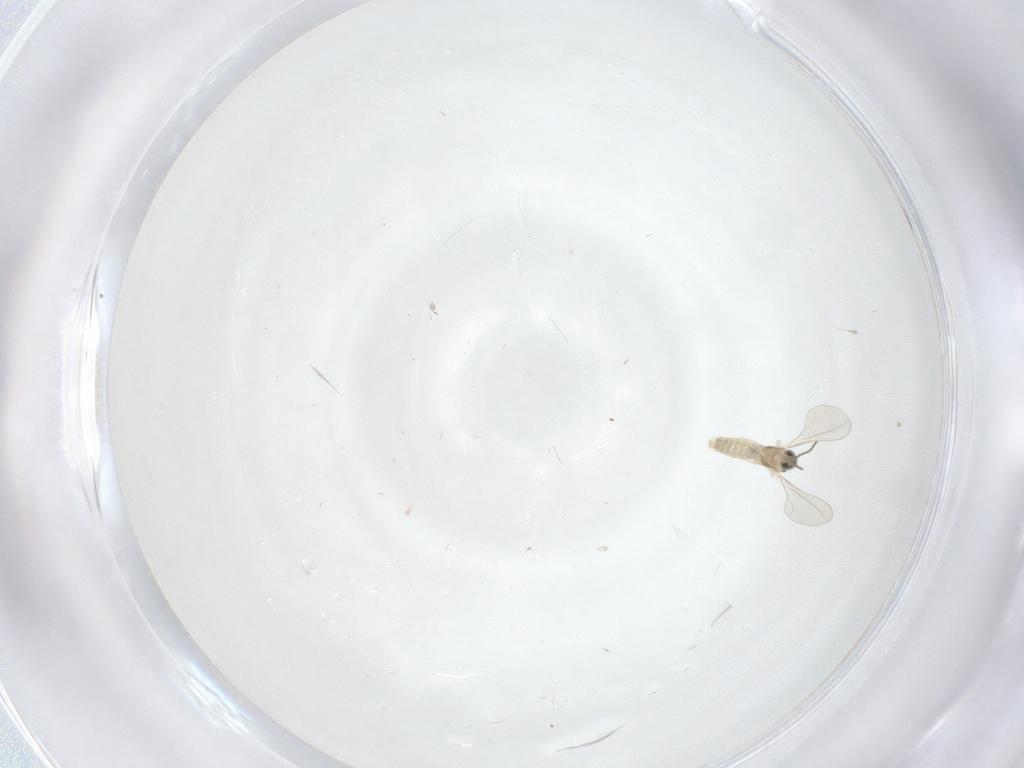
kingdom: Animalia
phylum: Arthropoda
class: Insecta
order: Diptera
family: Cecidomyiidae
